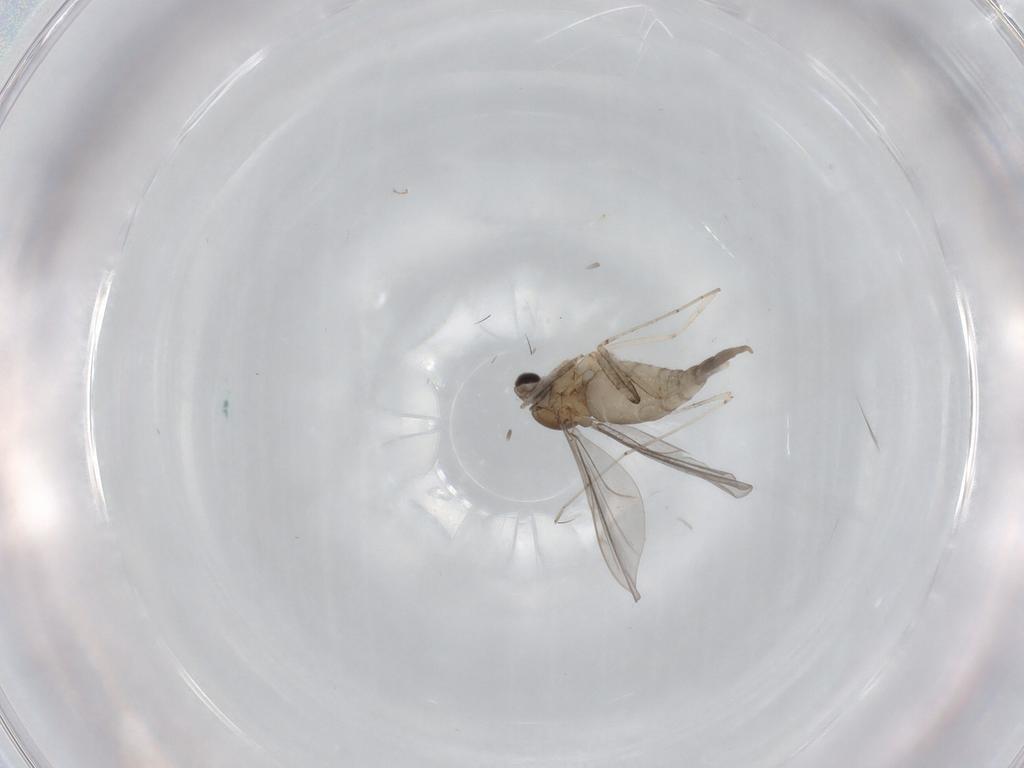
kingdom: Animalia
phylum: Arthropoda
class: Insecta
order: Diptera
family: Cecidomyiidae
